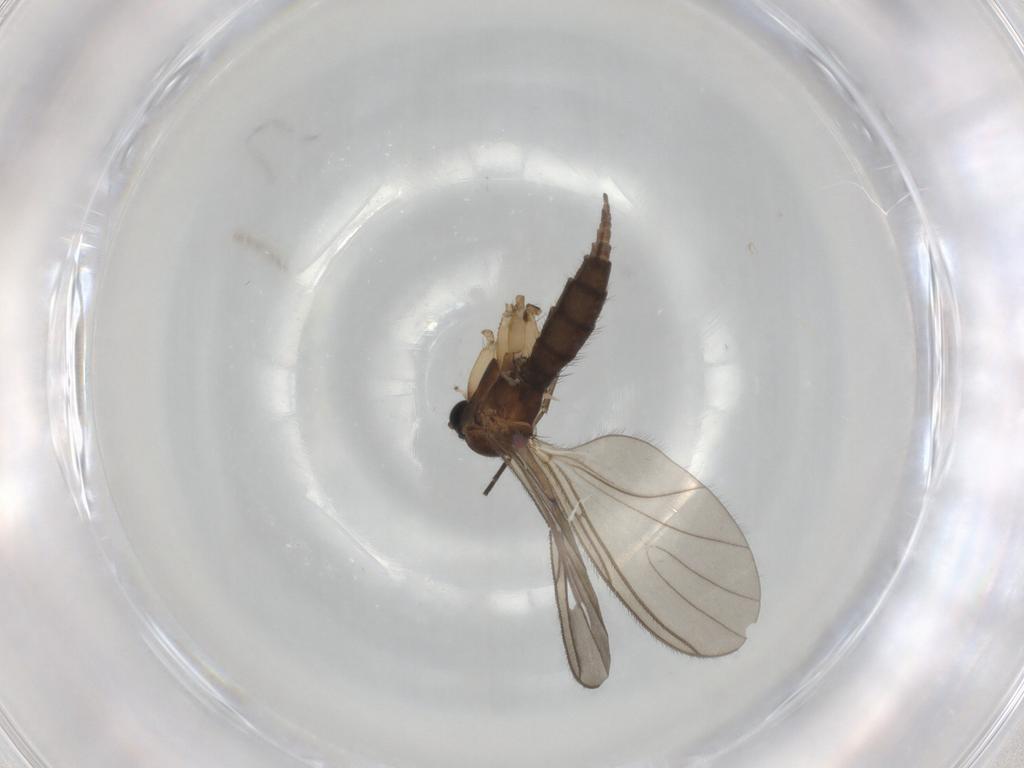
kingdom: Animalia
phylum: Arthropoda
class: Insecta
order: Diptera
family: Sciaridae
